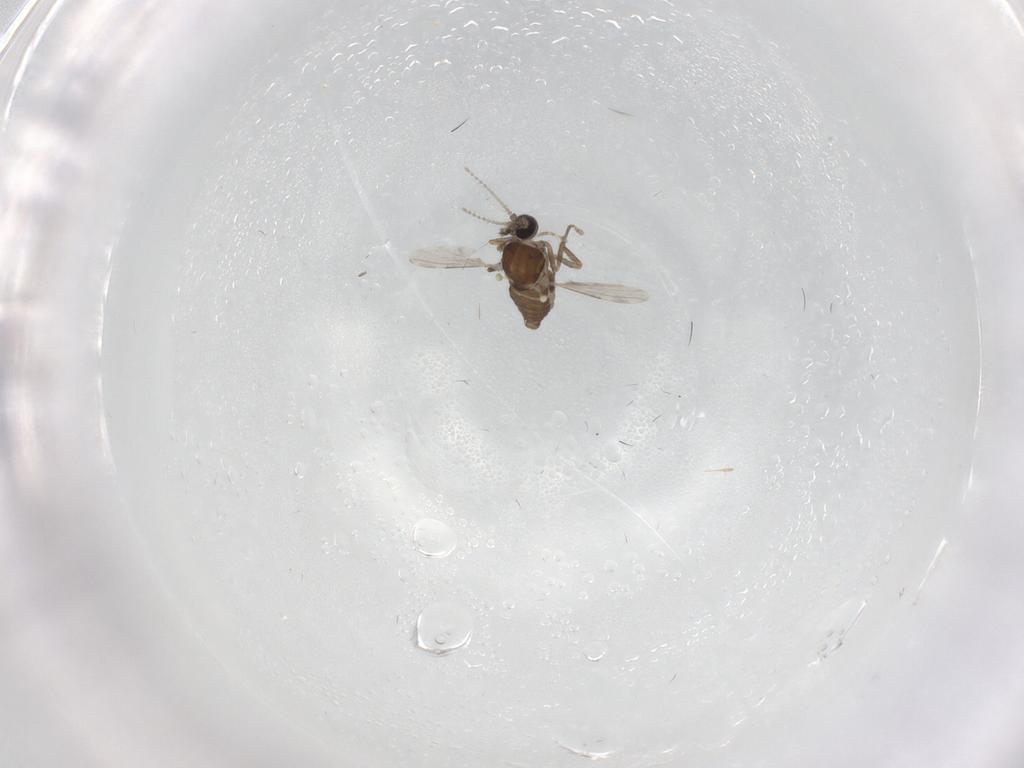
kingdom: Animalia
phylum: Arthropoda
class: Insecta
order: Diptera
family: Ceratopogonidae
